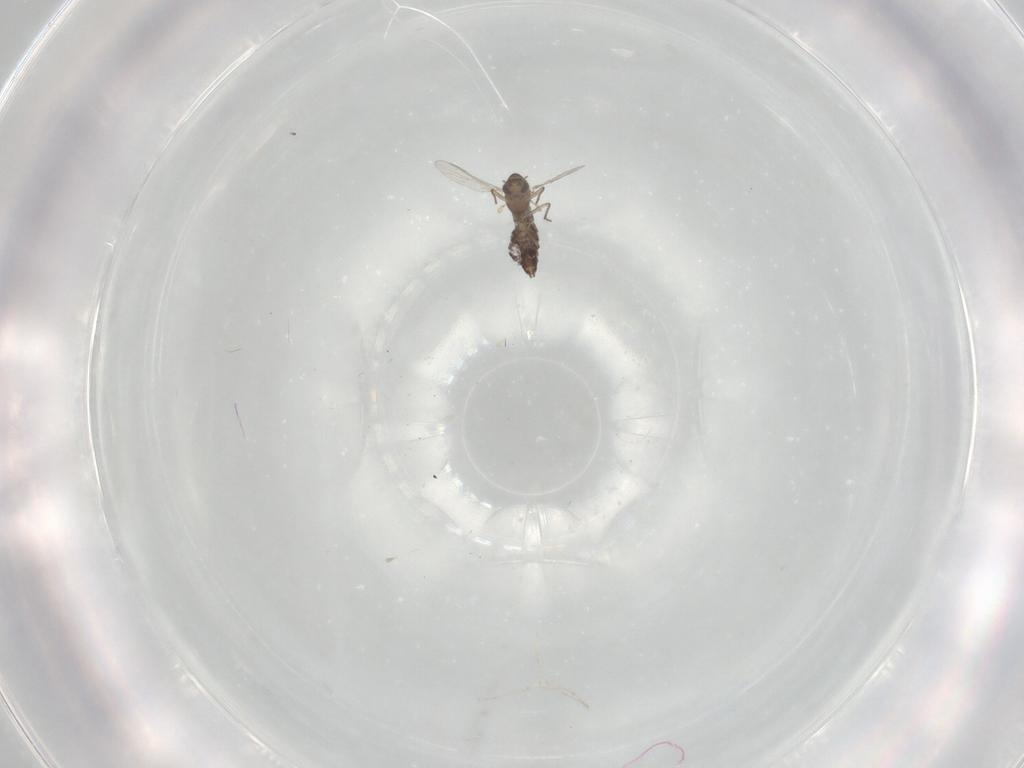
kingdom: Animalia
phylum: Arthropoda
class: Insecta
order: Diptera
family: Chironomidae
